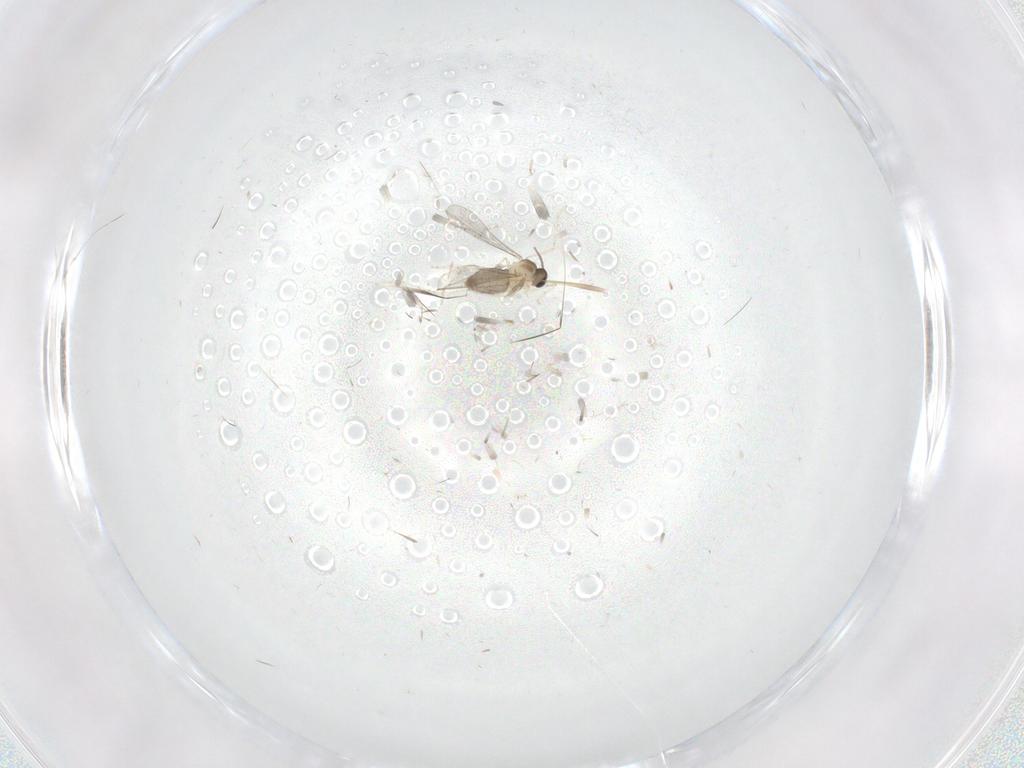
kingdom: Animalia
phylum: Arthropoda
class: Insecta
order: Diptera
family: Cecidomyiidae
